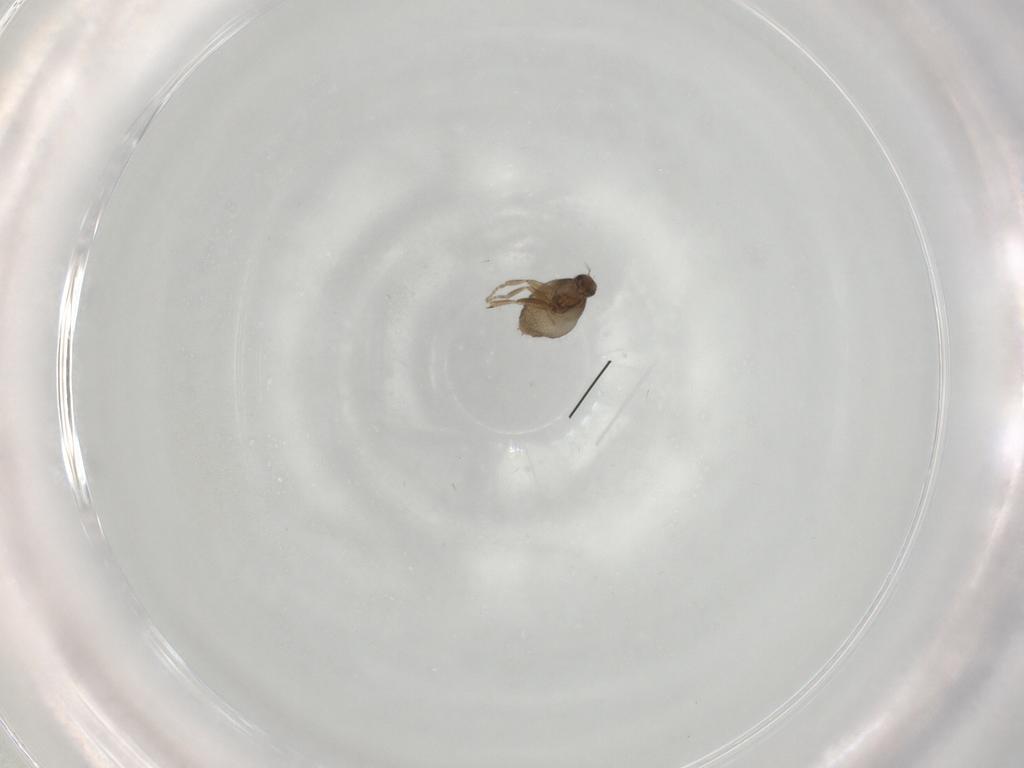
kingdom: Animalia
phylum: Arthropoda
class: Insecta
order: Diptera
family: Phoridae
